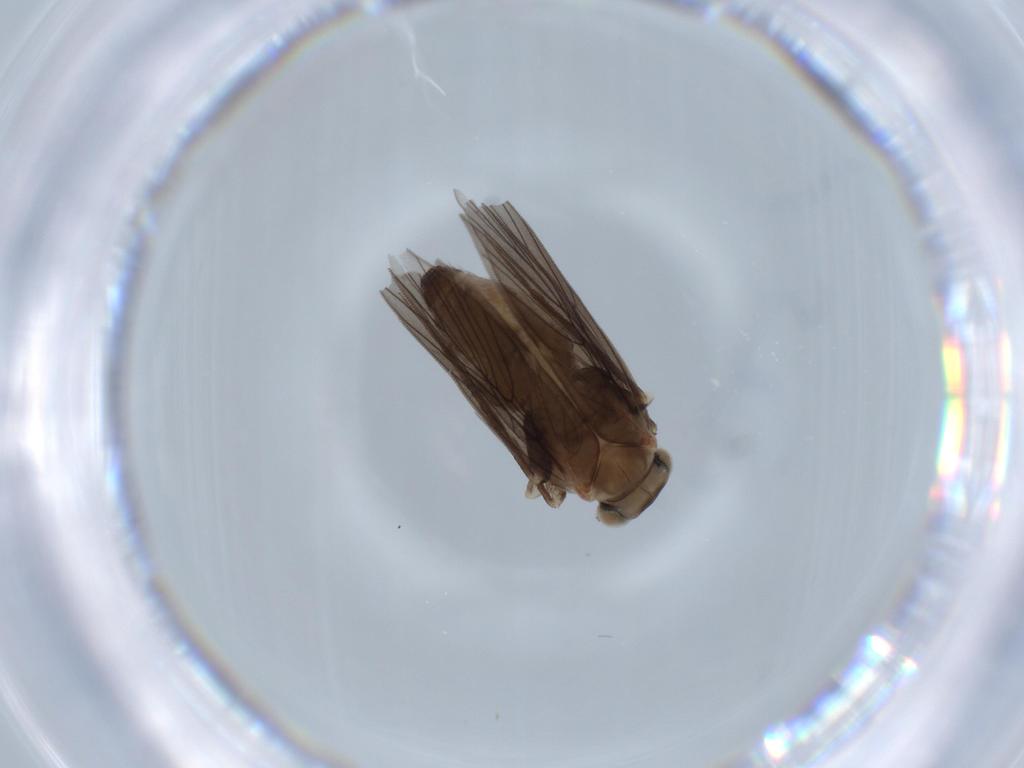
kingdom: Animalia
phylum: Arthropoda
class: Insecta
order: Psocodea
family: Lepidopsocidae
